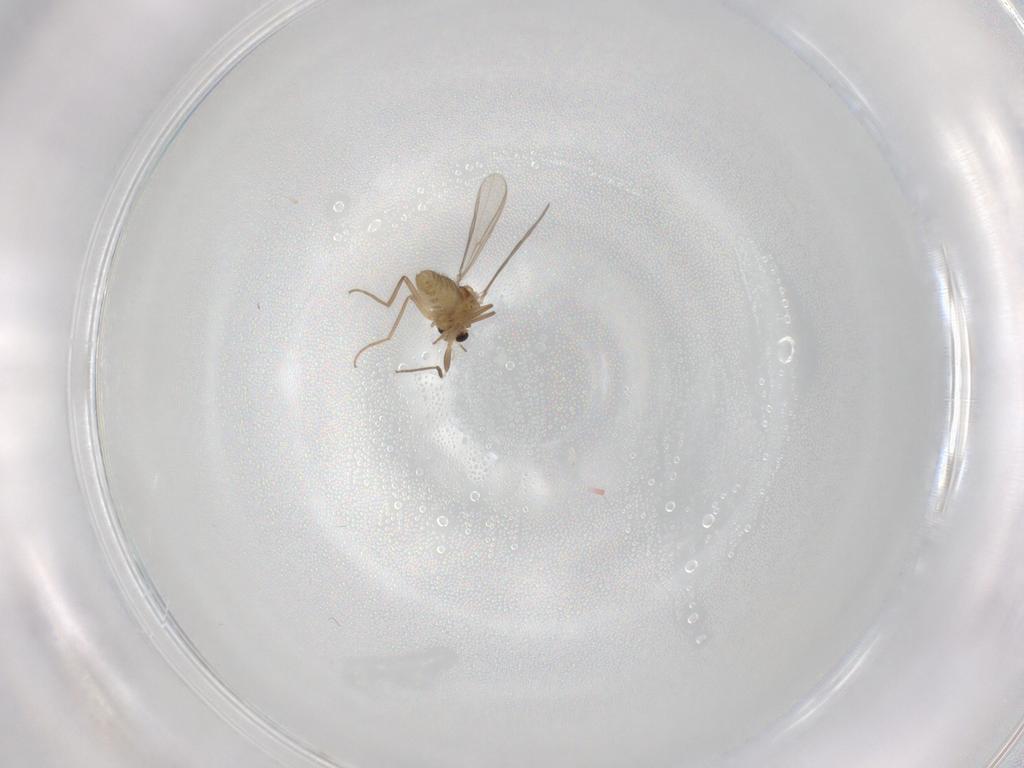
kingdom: Animalia
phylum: Arthropoda
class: Insecta
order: Diptera
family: Chironomidae
